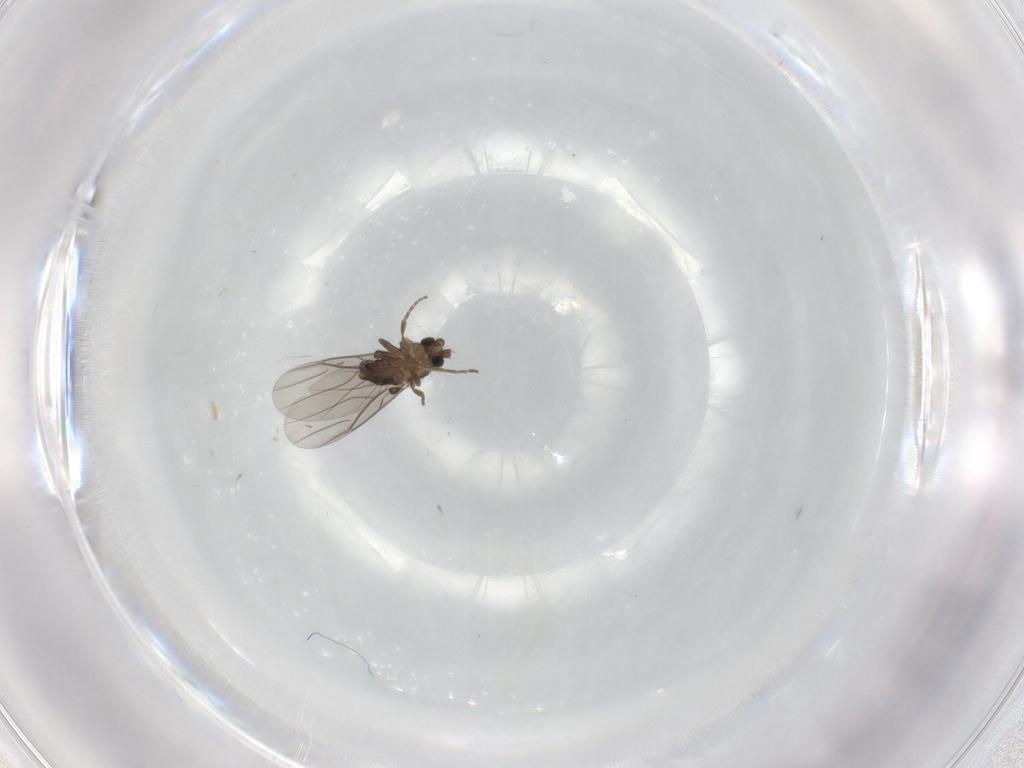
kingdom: Animalia
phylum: Arthropoda
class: Insecta
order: Diptera
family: Phoridae
